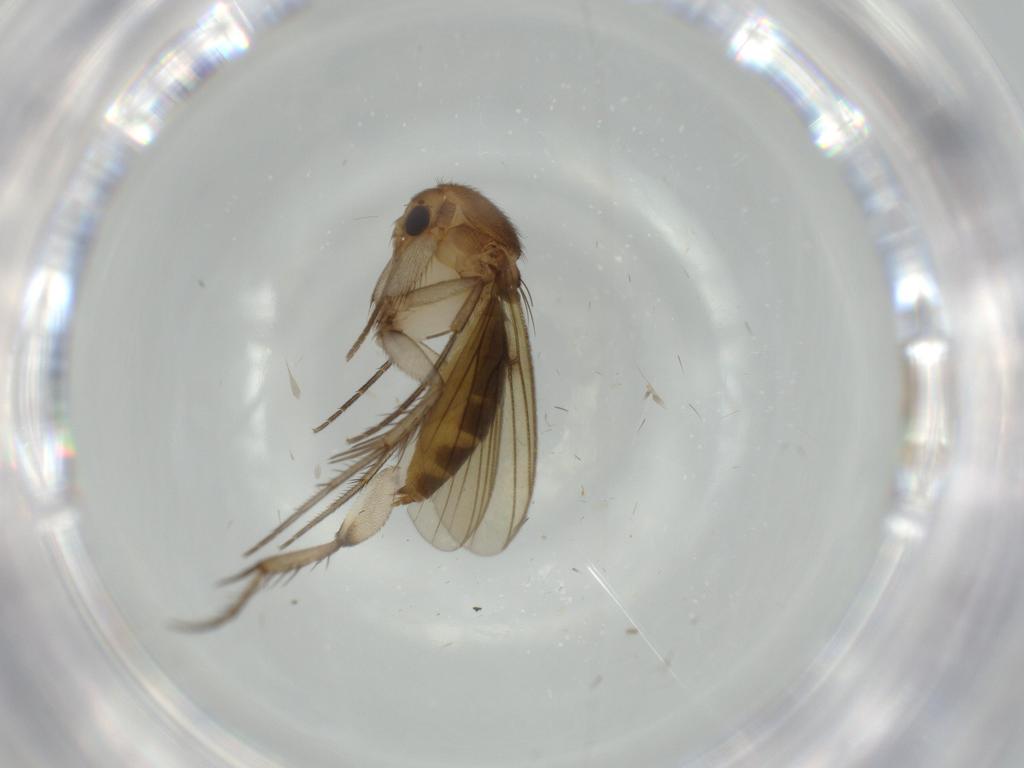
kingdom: Animalia
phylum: Arthropoda
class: Insecta
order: Diptera
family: Mycetophilidae
